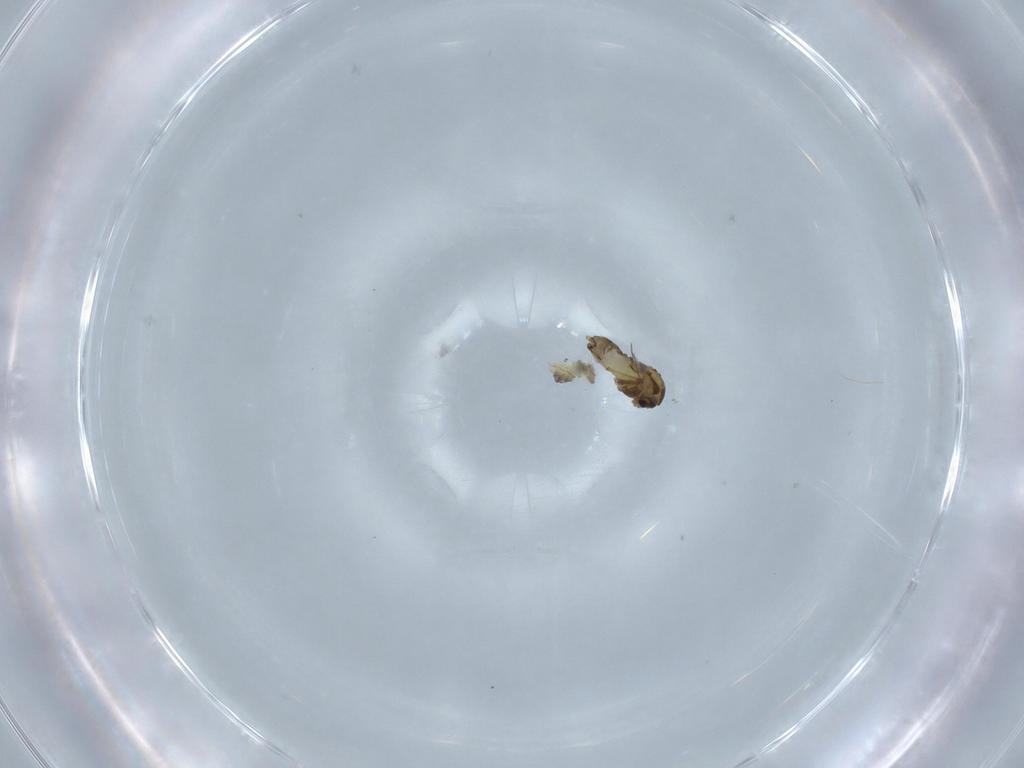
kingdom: Animalia
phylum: Arthropoda
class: Insecta
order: Diptera
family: Chironomidae
